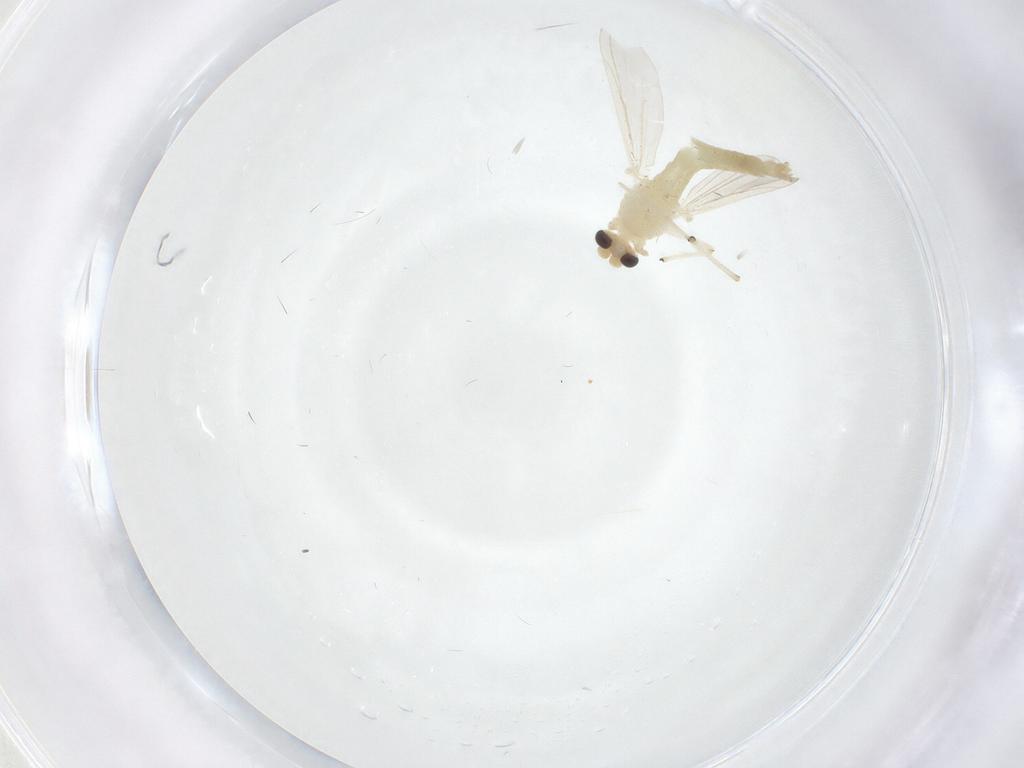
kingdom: Animalia
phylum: Arthropoda
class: Insecta
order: Diptera
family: Chironomidae
